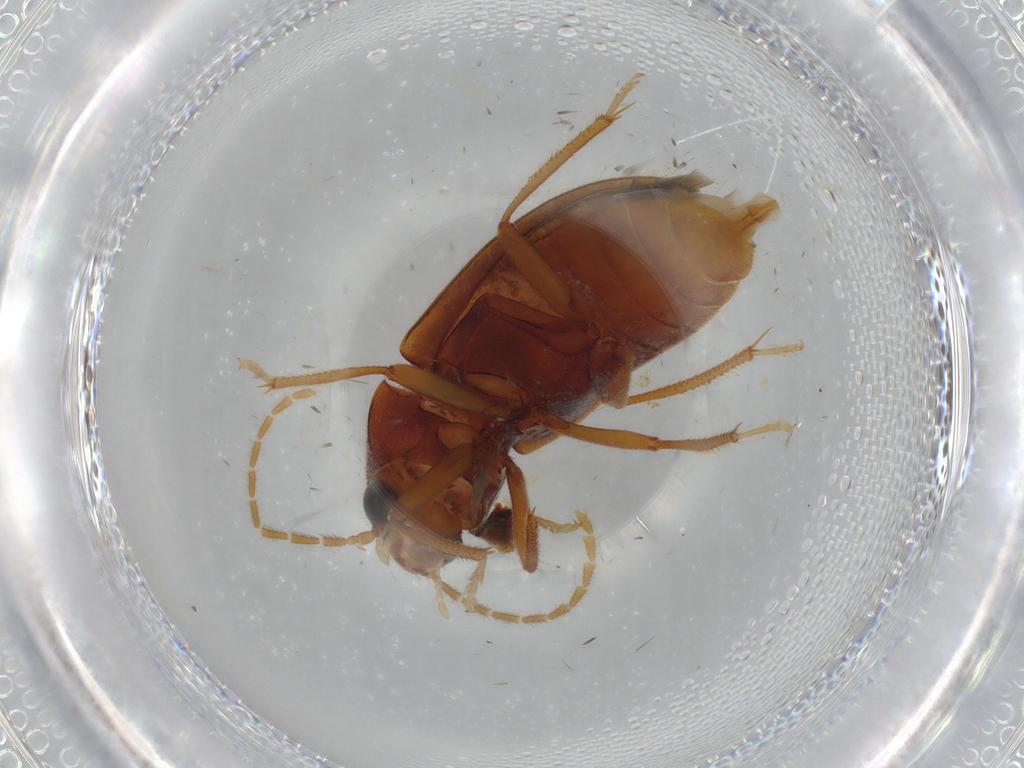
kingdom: Animalia
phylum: Arthropoda
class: Insecta
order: Coleoptera
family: Ptilodactylidae
